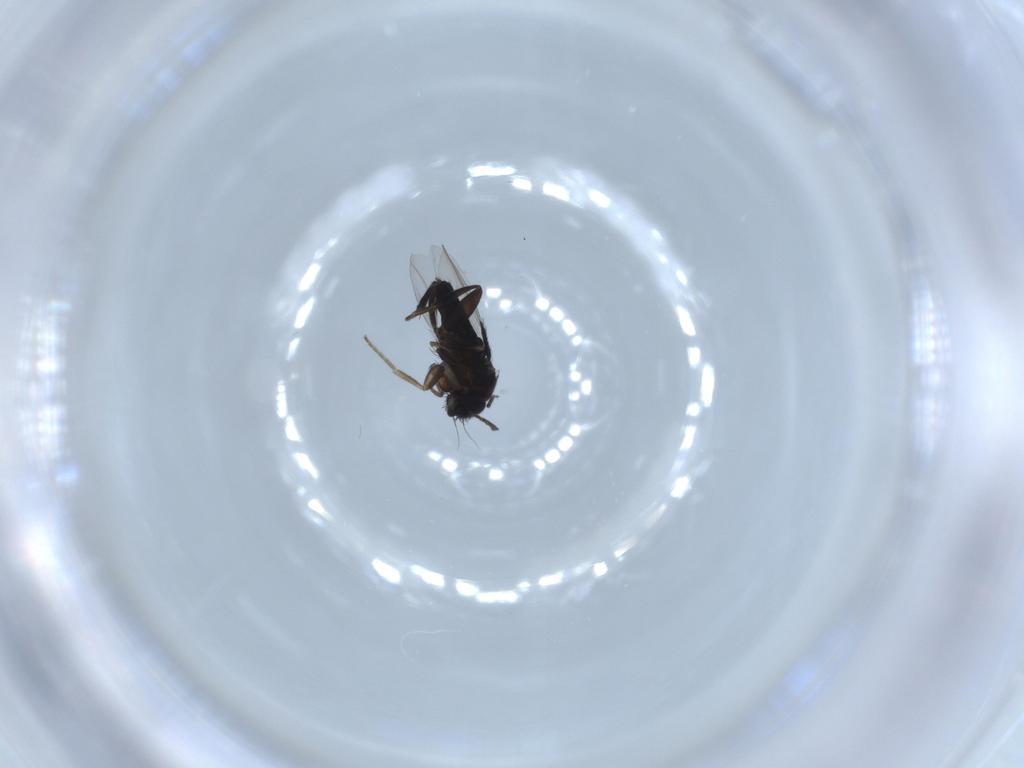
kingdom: Animalia
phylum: Arthropoda
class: Insecta
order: Diptera
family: Phoridae
